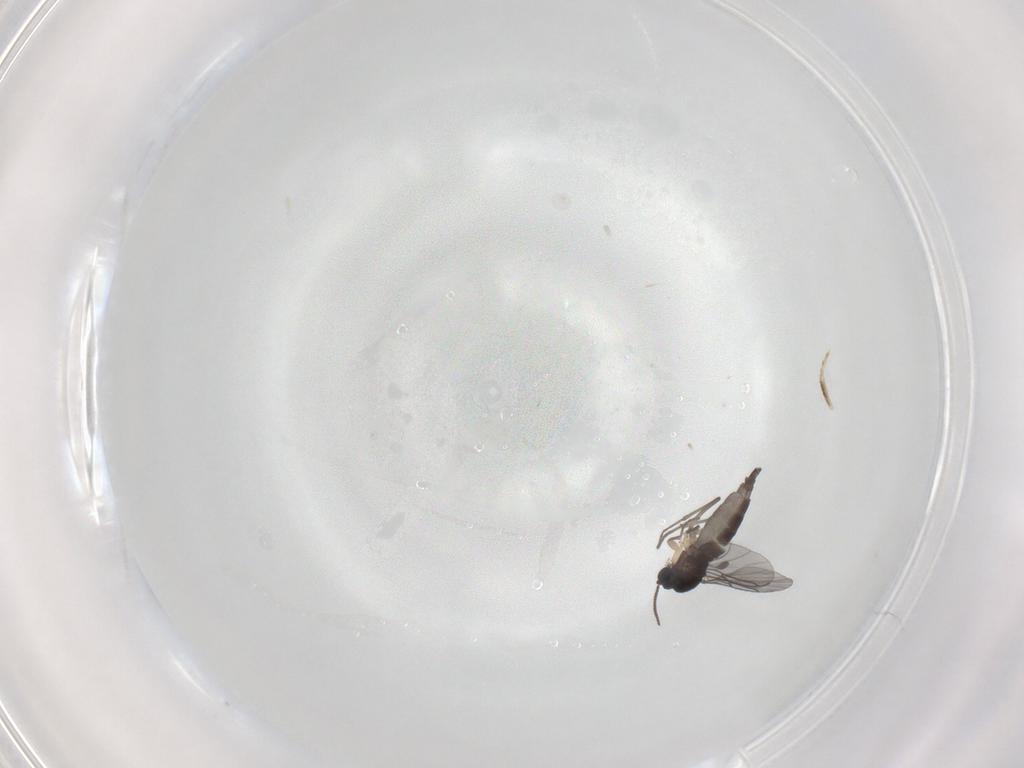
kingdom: Animalia
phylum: Arthropoda
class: Insecta
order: Diptera
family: Sciaridae
